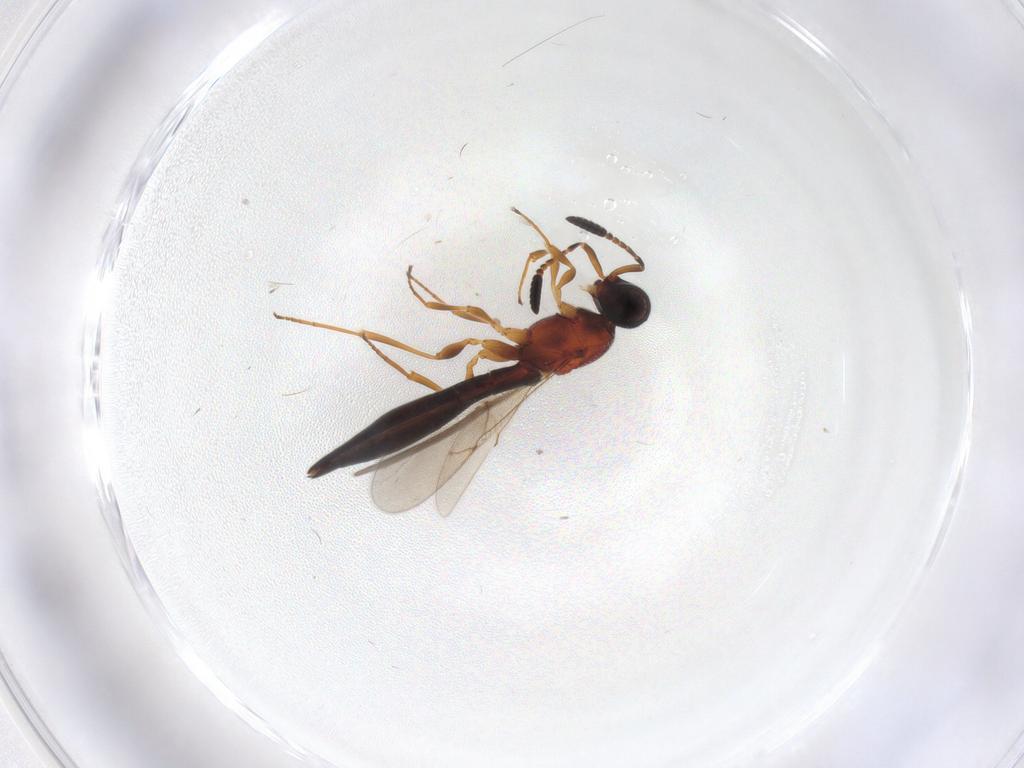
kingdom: Animalia
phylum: Arthropoda
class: Insecta
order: Hymenoptera
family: Scelionidae
